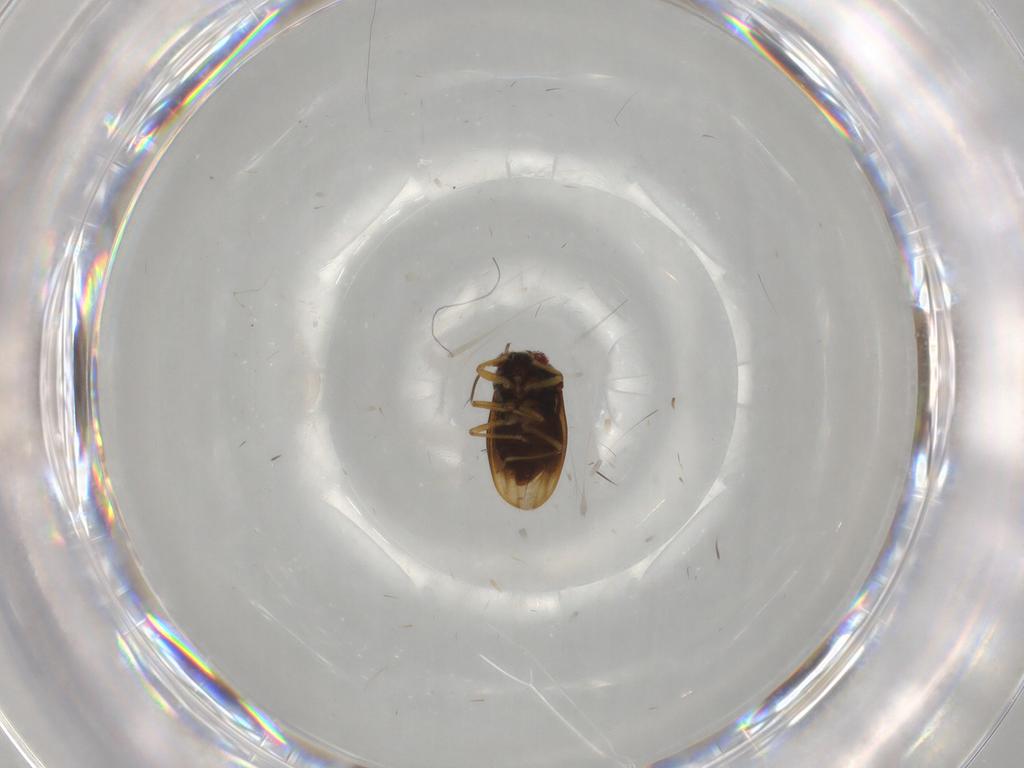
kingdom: Animalia
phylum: Arthropoda
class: Insecta
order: Hemiptera
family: Schizopteridae
